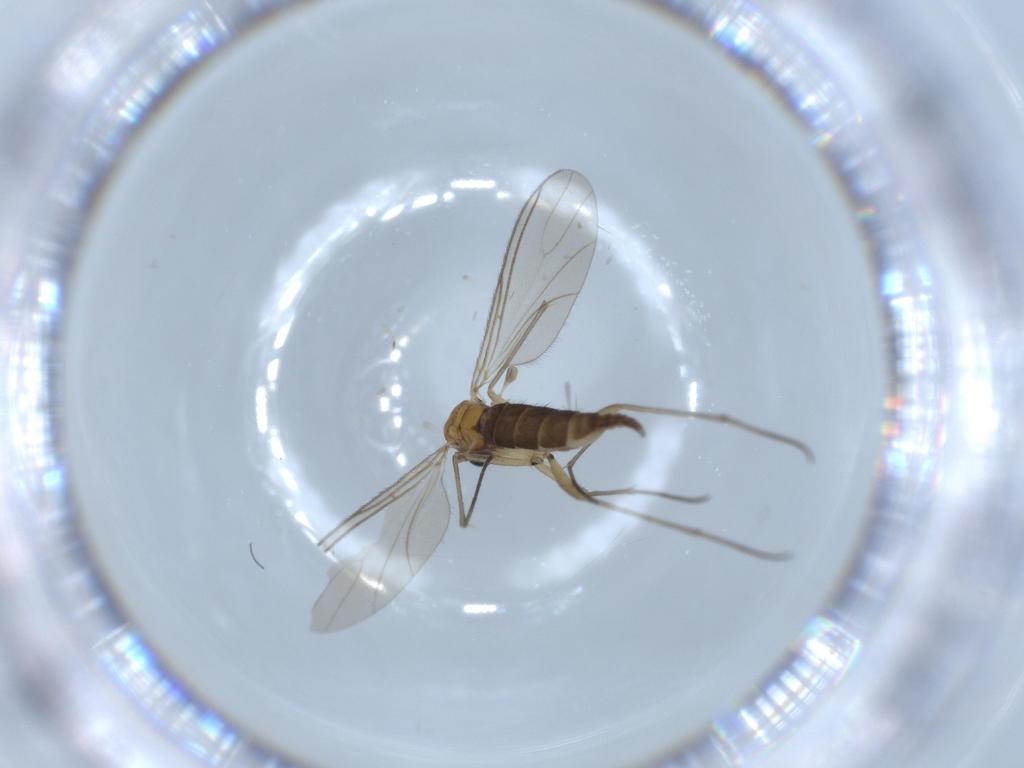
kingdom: Animalia
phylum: Arthropoda
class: Insecta
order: Diptera
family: Sciaridae
